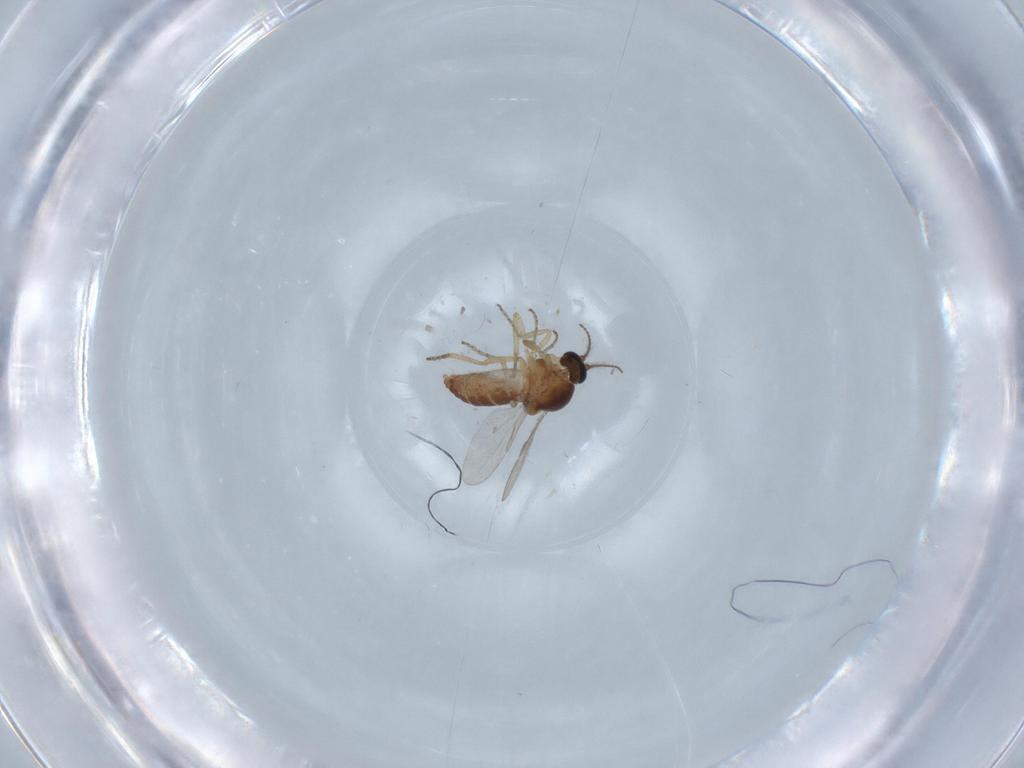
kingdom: Animalia
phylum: Arthropoda
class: Insecta
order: Diptera
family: Ceratopogonidae
